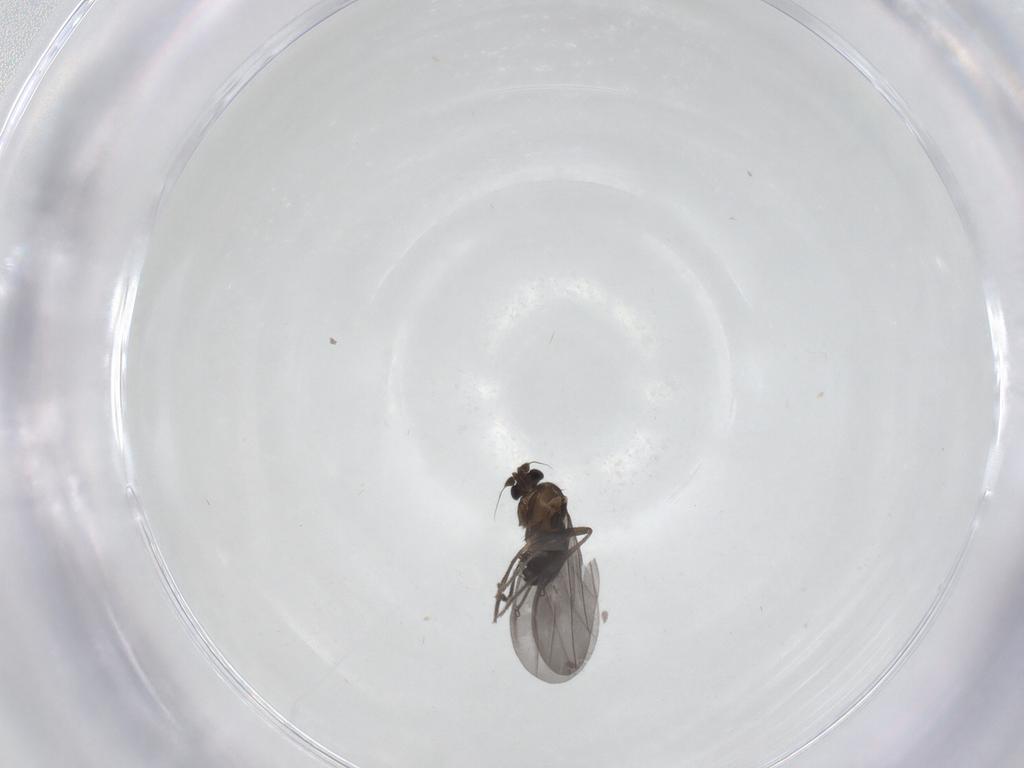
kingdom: Animalia
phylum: Arthropoda
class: Insecta
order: Diptera
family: Phoridae
